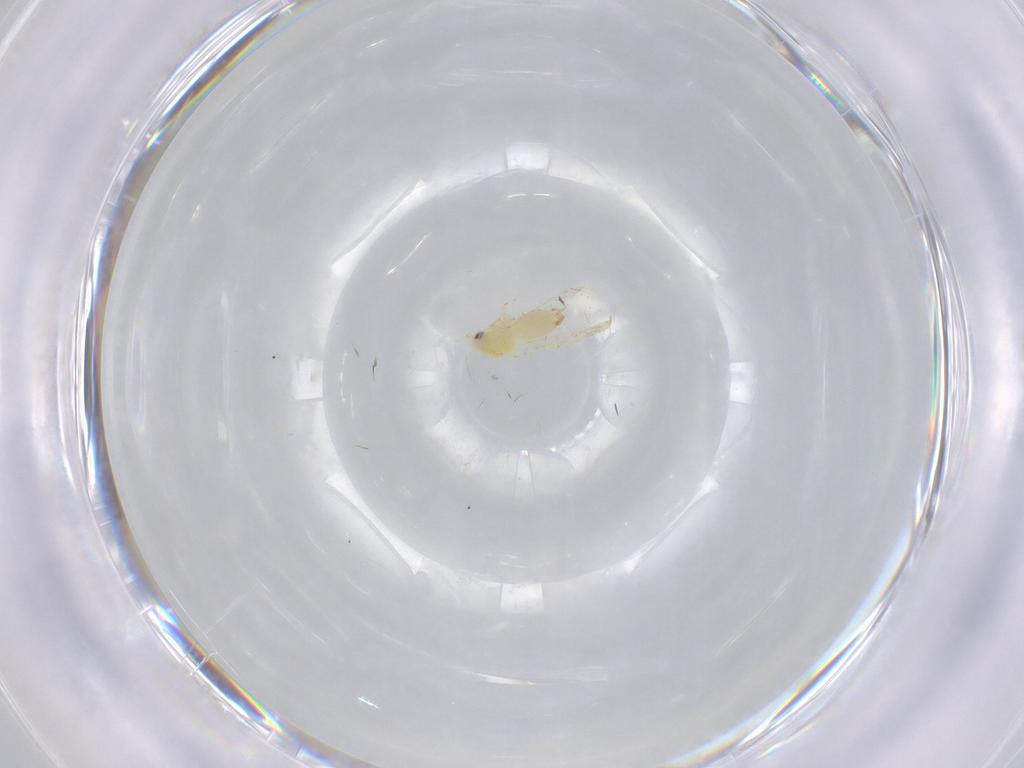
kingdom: Animalia
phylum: Arthropoda
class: Insecta
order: Hemiptera
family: Aleyrodidae
